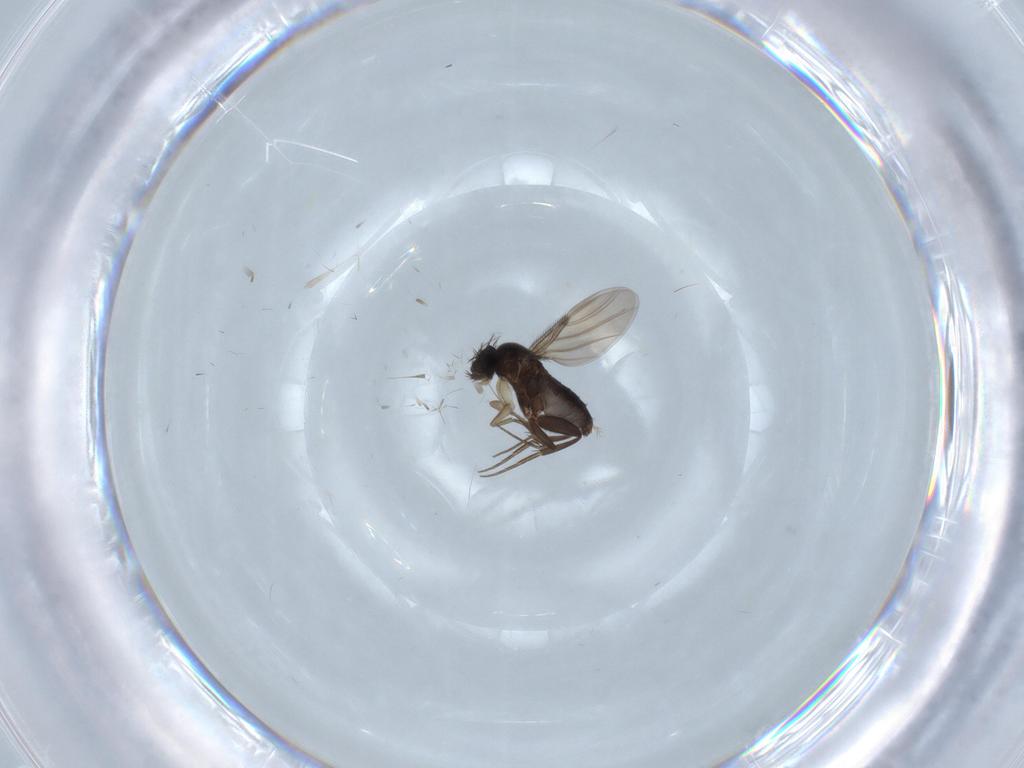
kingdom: Animalia
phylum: Arthropoda
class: Insecta
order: Diptera
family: Phoridae
